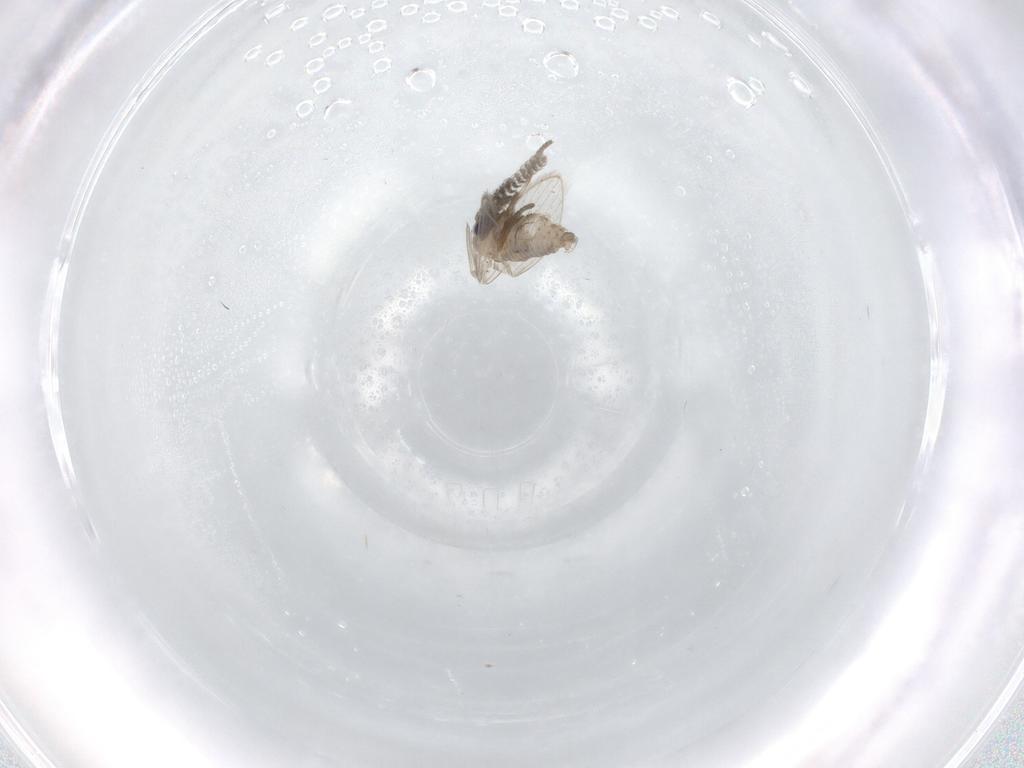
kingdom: Animalia
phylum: Arthropoda
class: Insecta
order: Diptera
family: Psychodidae
